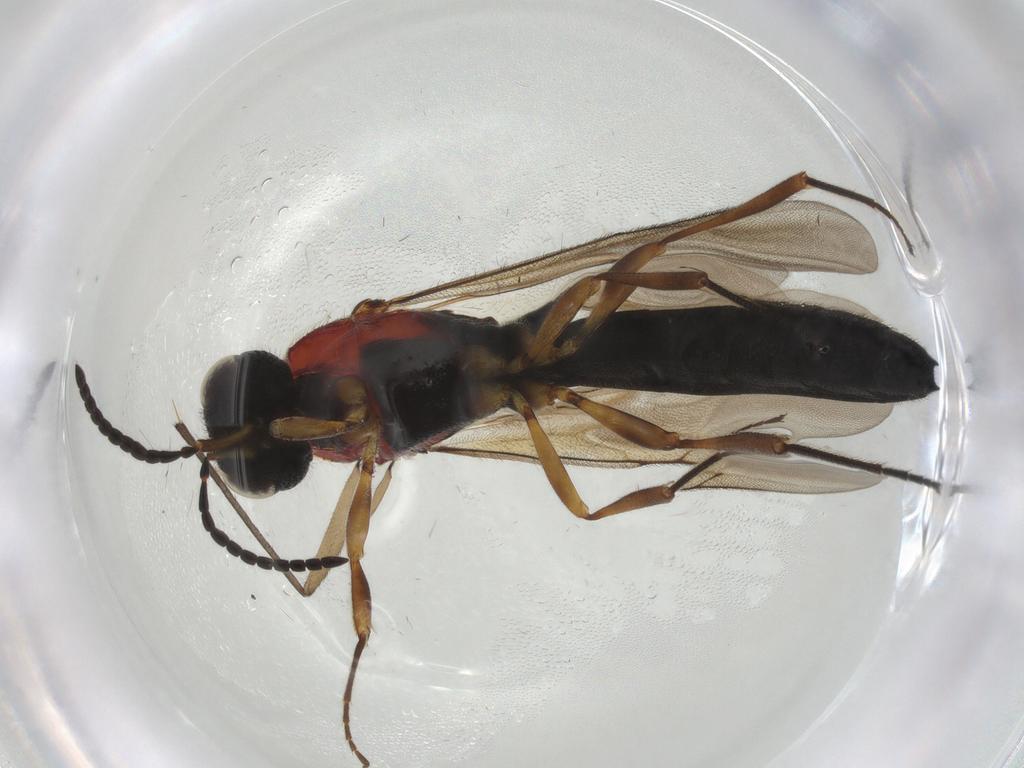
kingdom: Animalia
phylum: Arthropoda
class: Insecta
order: Hymenoptera
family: Scelionidae
